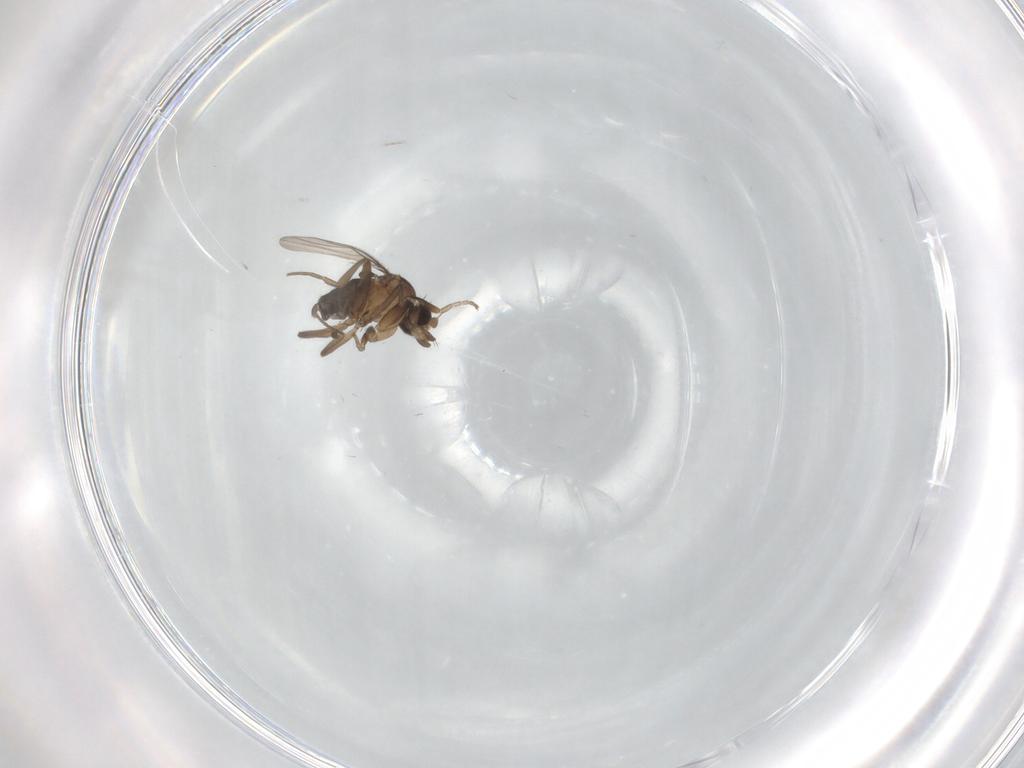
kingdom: Animalia
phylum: Arthropoda
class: Insecta
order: Diptera
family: Phoridae
